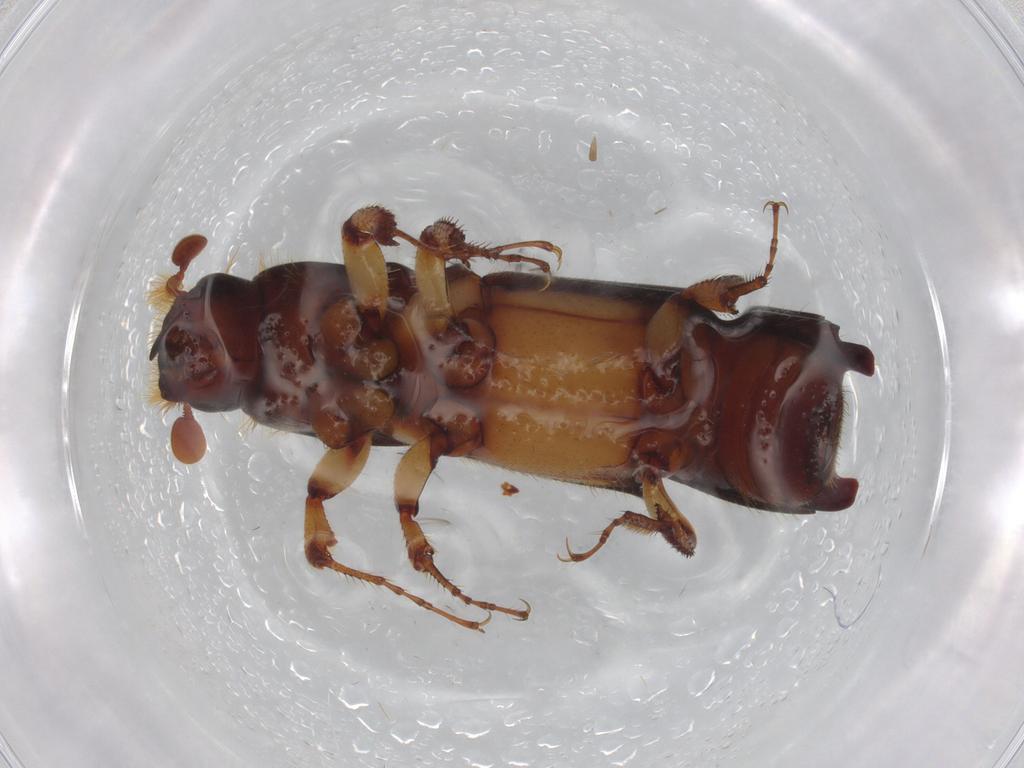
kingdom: Animalia
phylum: Arthropoda
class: Insecta
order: Coleoptera
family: Curculionidae
